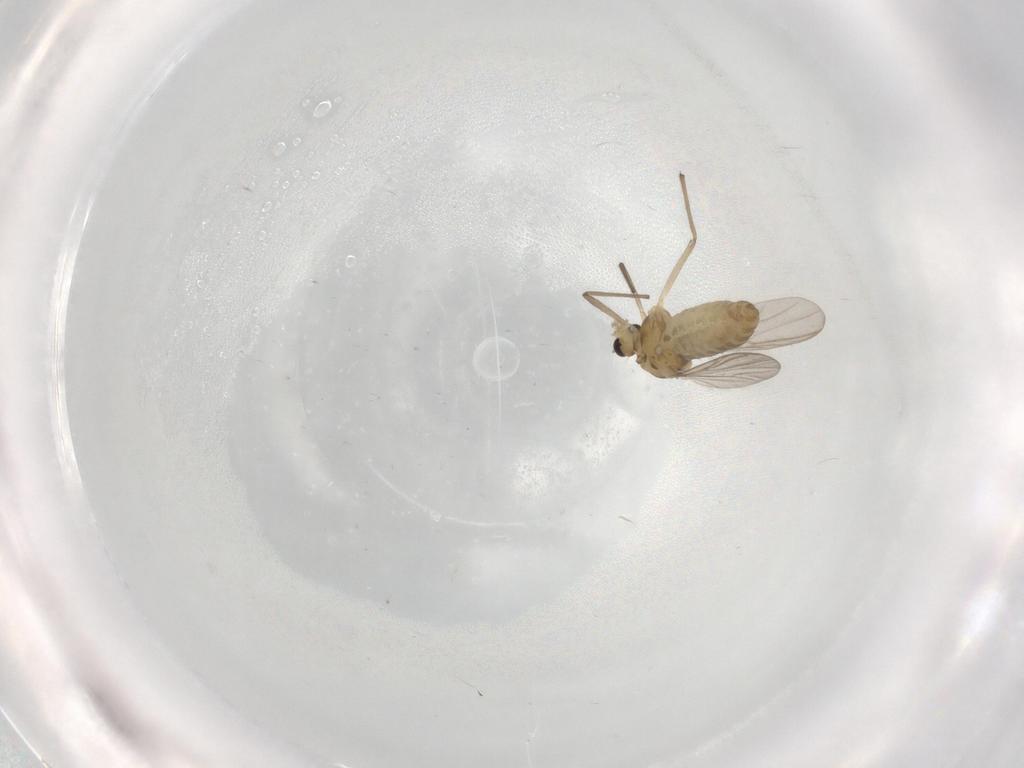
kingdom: Animalia
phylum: Arthropoda
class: Insecta
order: Diptera
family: Chironomidae
